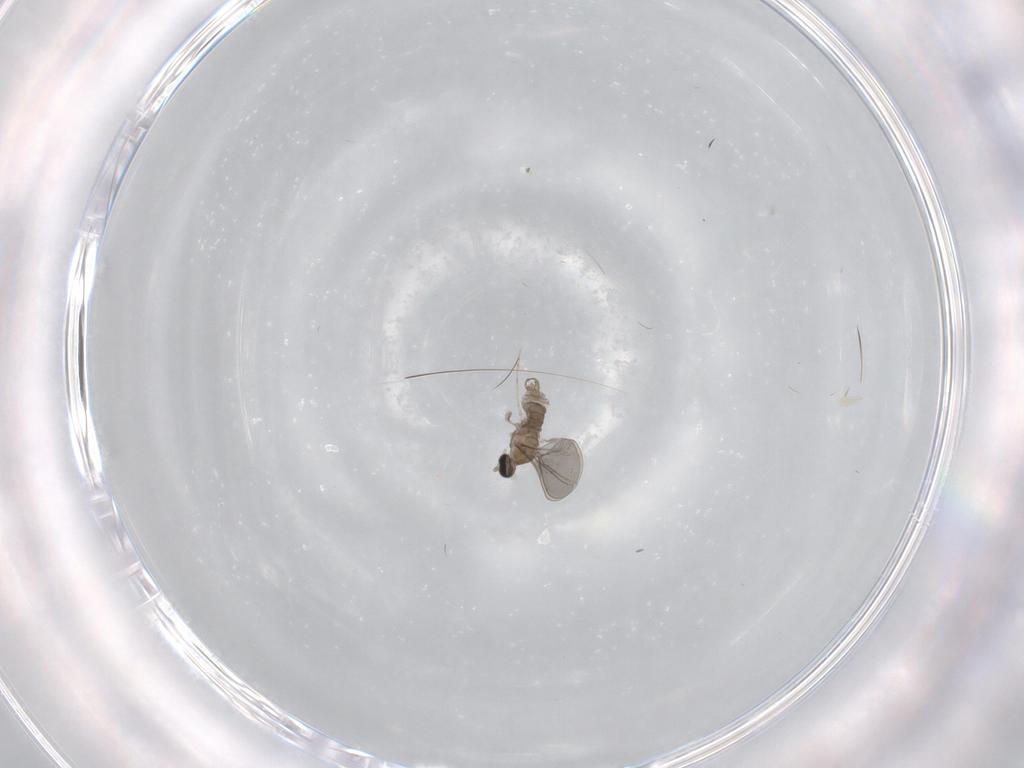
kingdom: Animalia
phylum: Arthropoda
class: Insecta
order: Diptera
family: Cecidomyiidae
